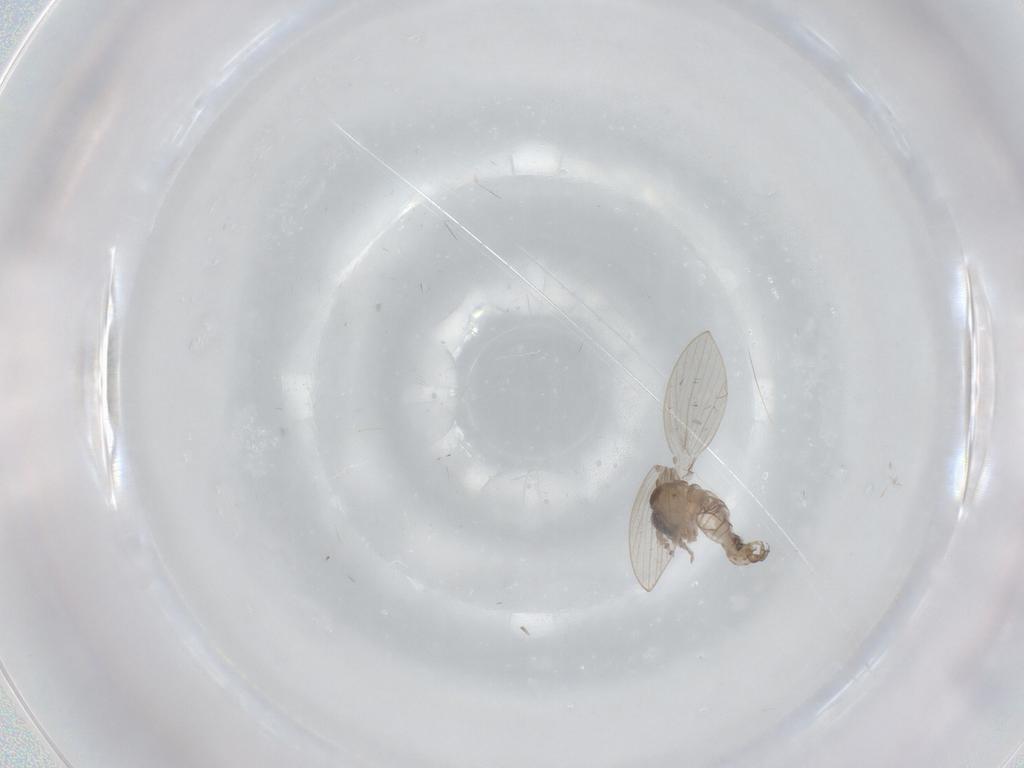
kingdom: Animalia
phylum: Arthropoda
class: Insecta
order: Diptera
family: Psychodidae
